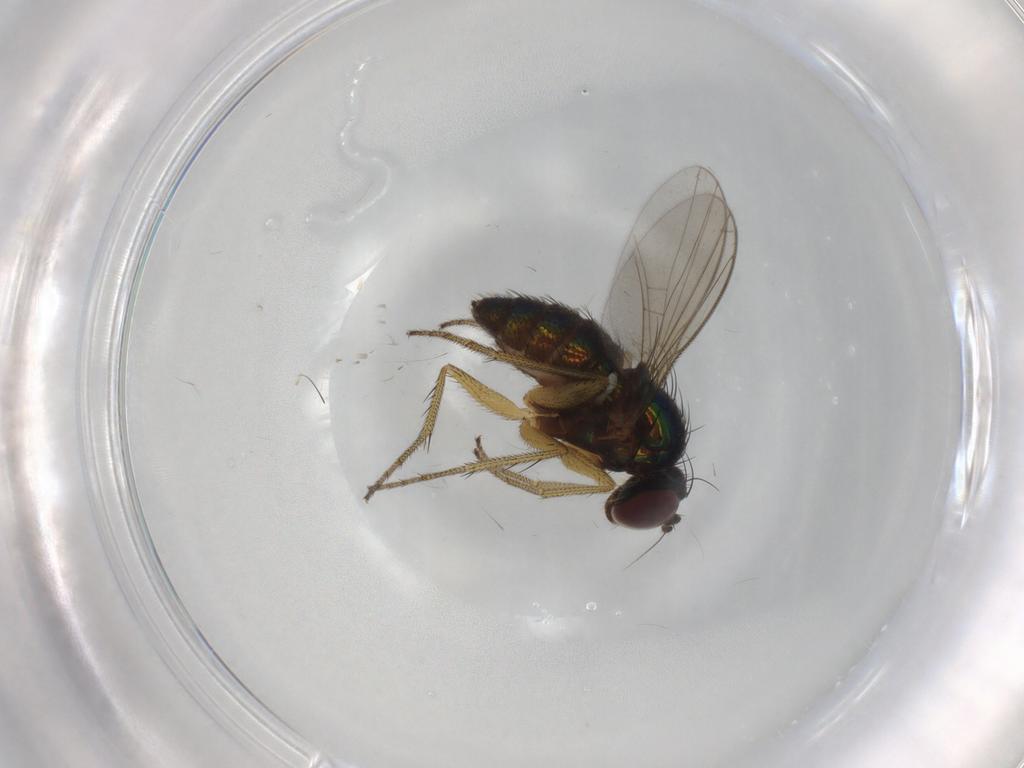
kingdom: Animalia
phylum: Arthropoda
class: Insecta
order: Diptera
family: Dolichopodidae
